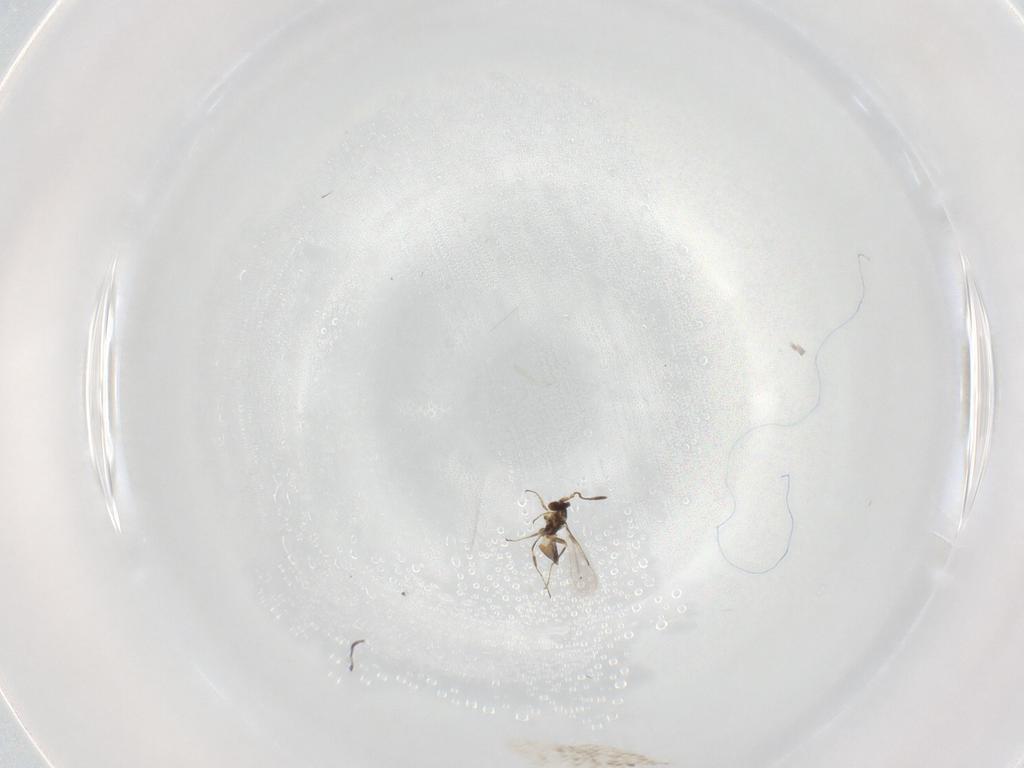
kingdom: Animalia
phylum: Arthropoda
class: Insecta
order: Hymenoptera
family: Mymaridae
